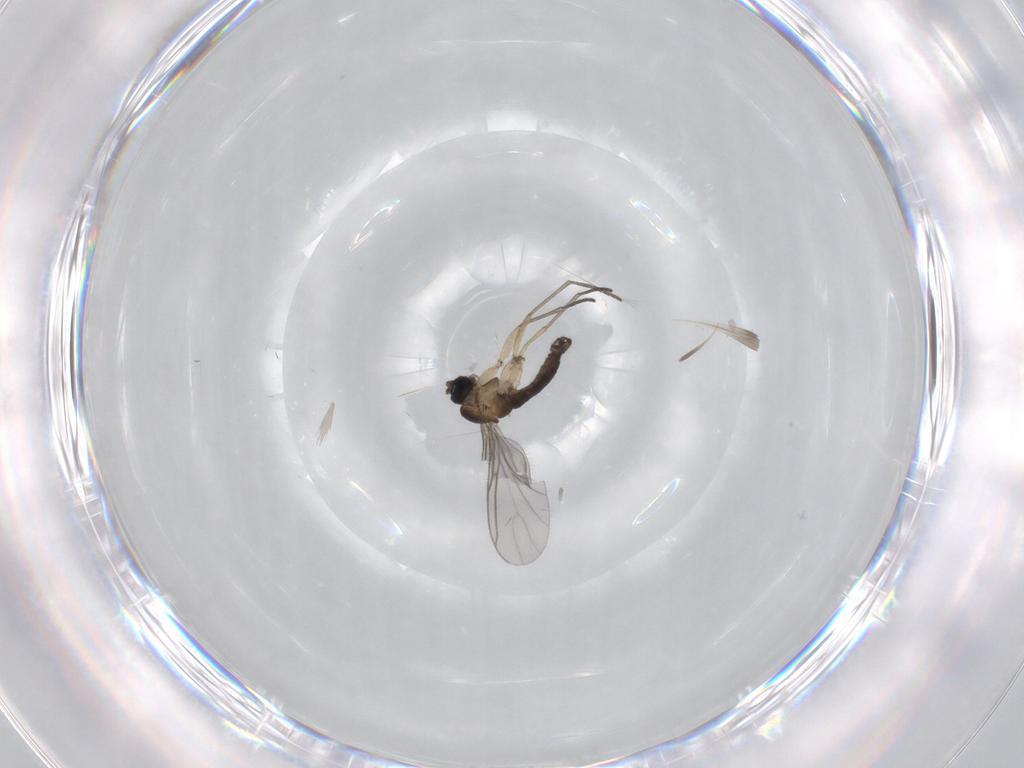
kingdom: Animalia
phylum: Arthropoda
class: Insecta
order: Diptera
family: Sciaridae
